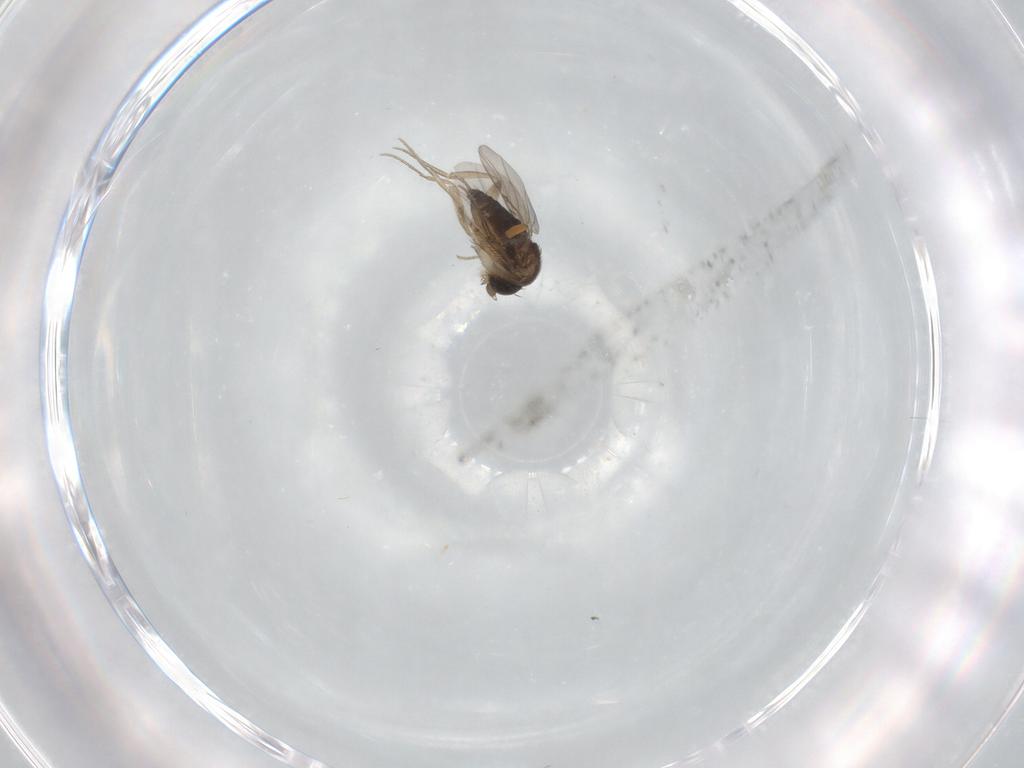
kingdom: Animalia
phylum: Arthropoda
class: Insecta
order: Diptera
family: Phoridae
